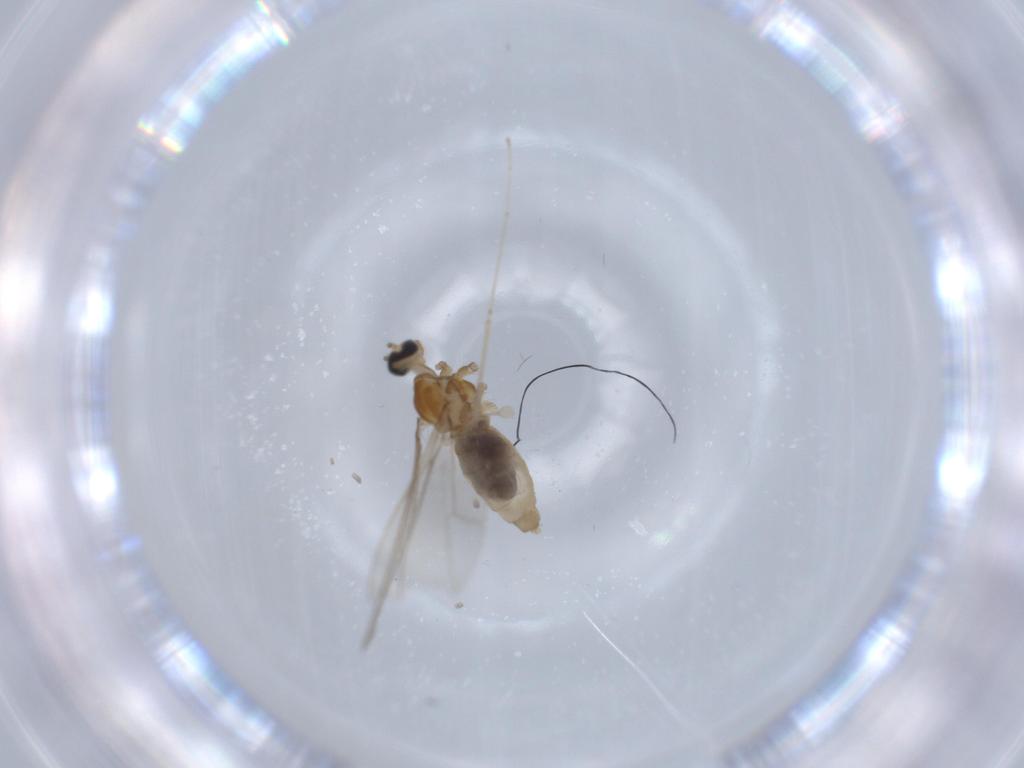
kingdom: Animalia
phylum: Arthropoda
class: Insecta
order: Diptera
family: Cecidomyiidae
